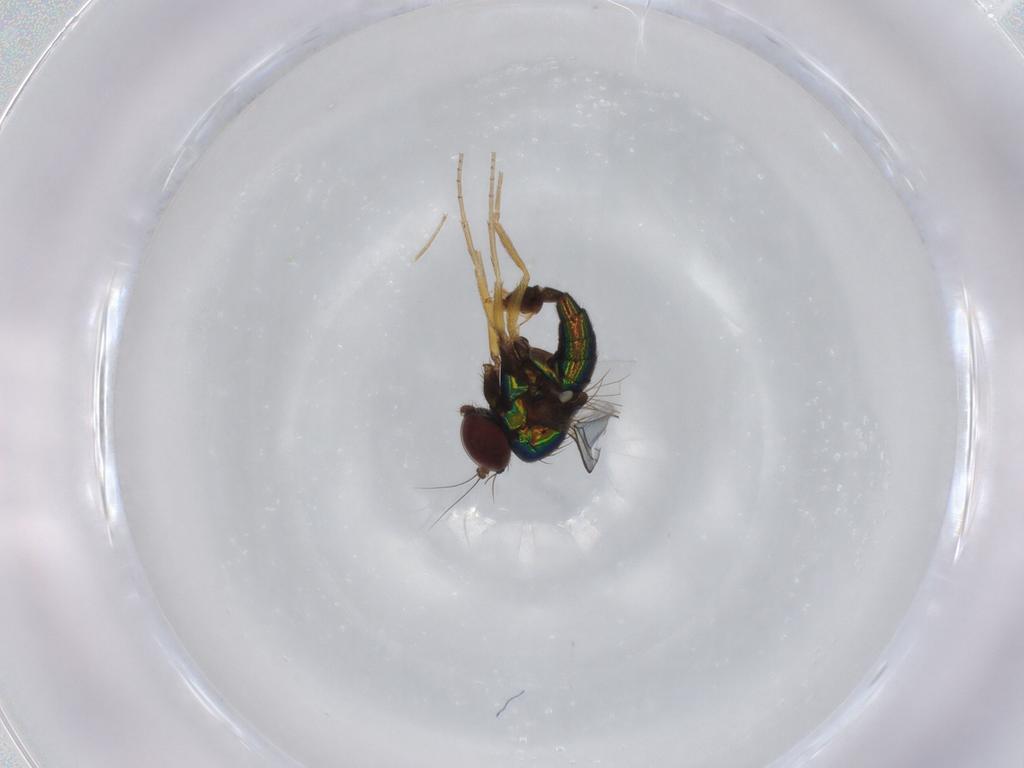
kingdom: Animalia
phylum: Arthropoda
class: Insecta
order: Diptera
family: Dolichopodidae
